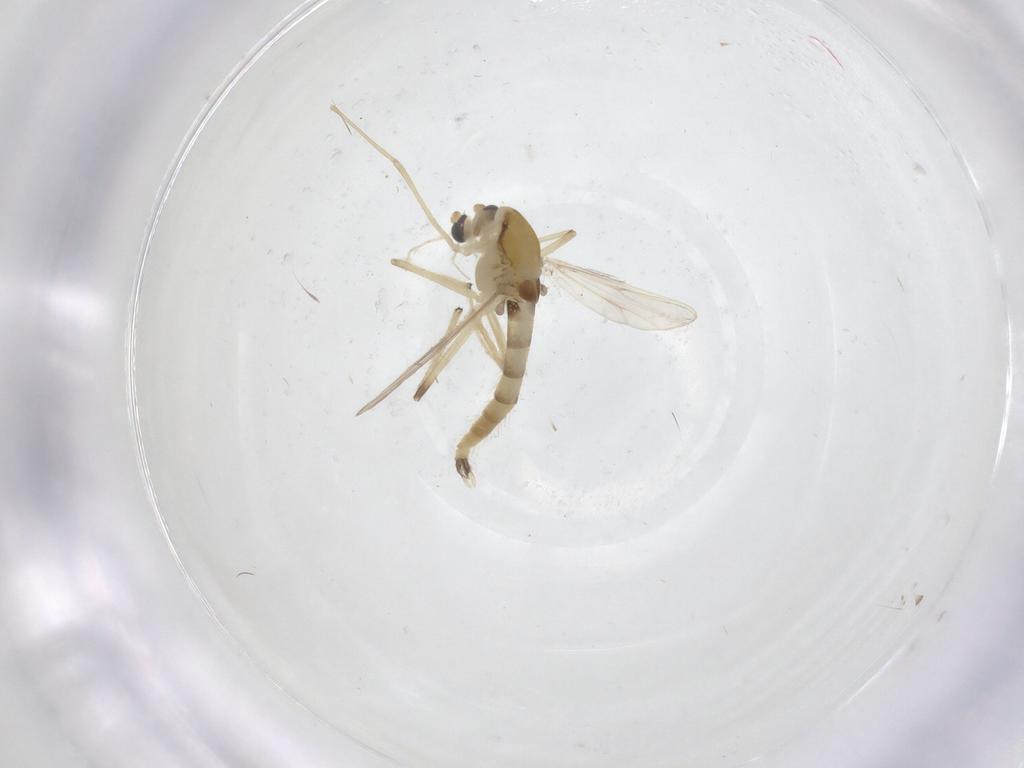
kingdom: Animalia
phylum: Arthropoda
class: Insecta
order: Diptera
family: Chironomidae
